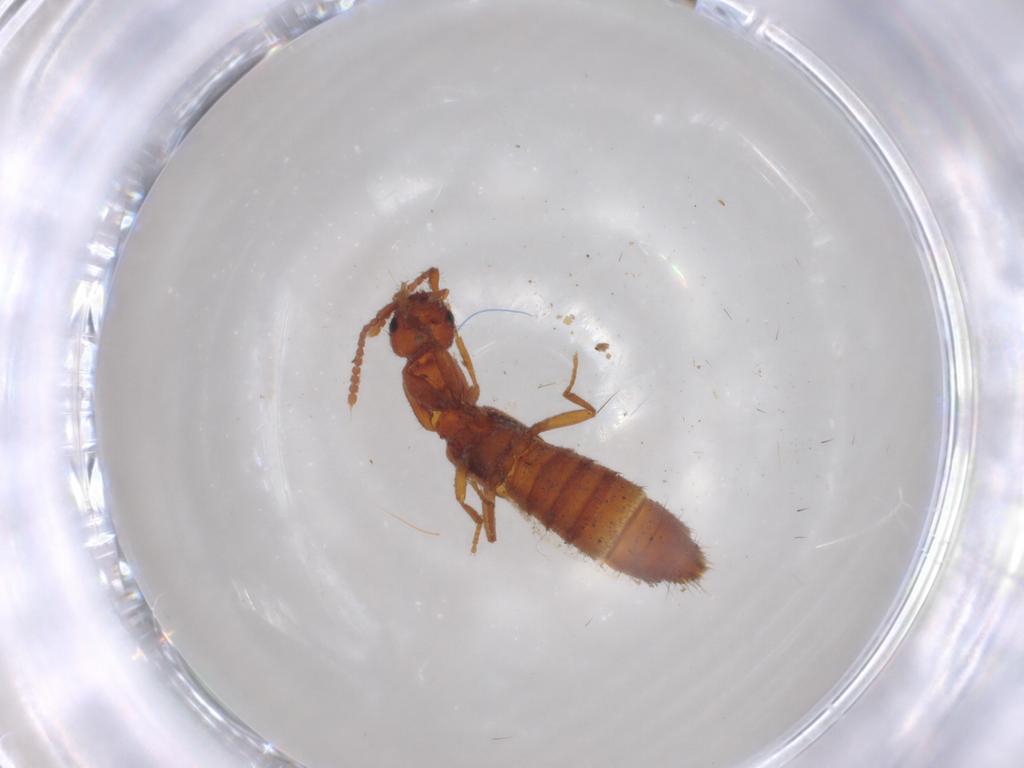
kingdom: Animalia
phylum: Arthropoda
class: Insecta
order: Coleoptera
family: Staphylinidae
